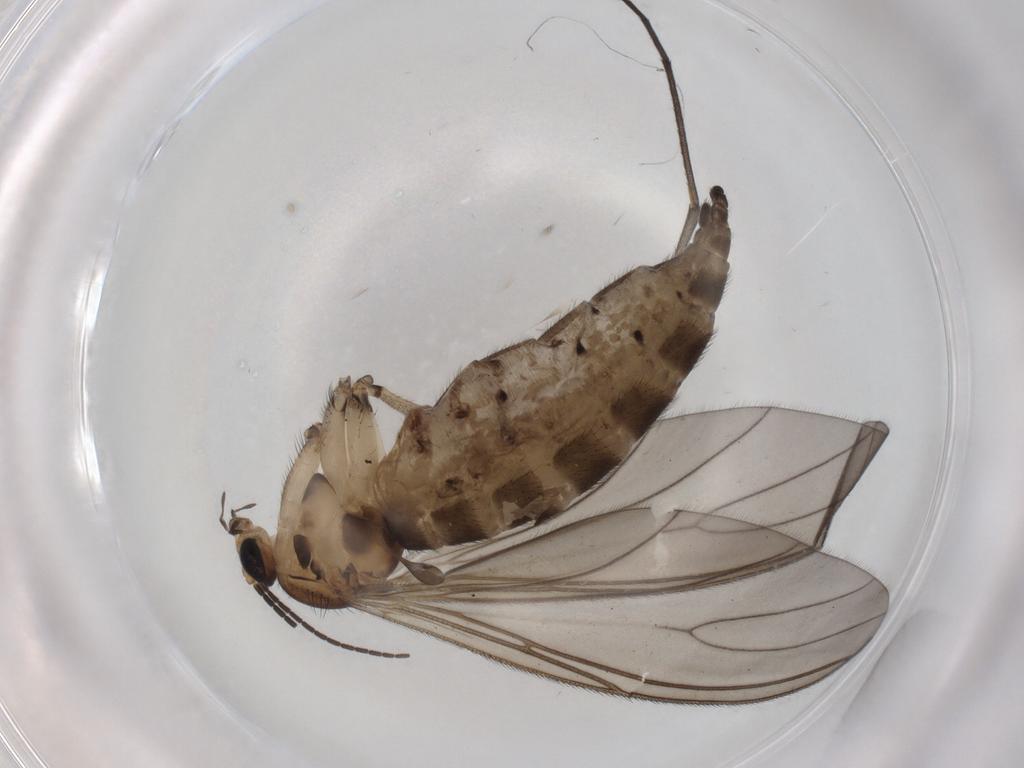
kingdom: Animalia
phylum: Arthropoda
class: Insecta
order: Diptera
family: Sciaridae
